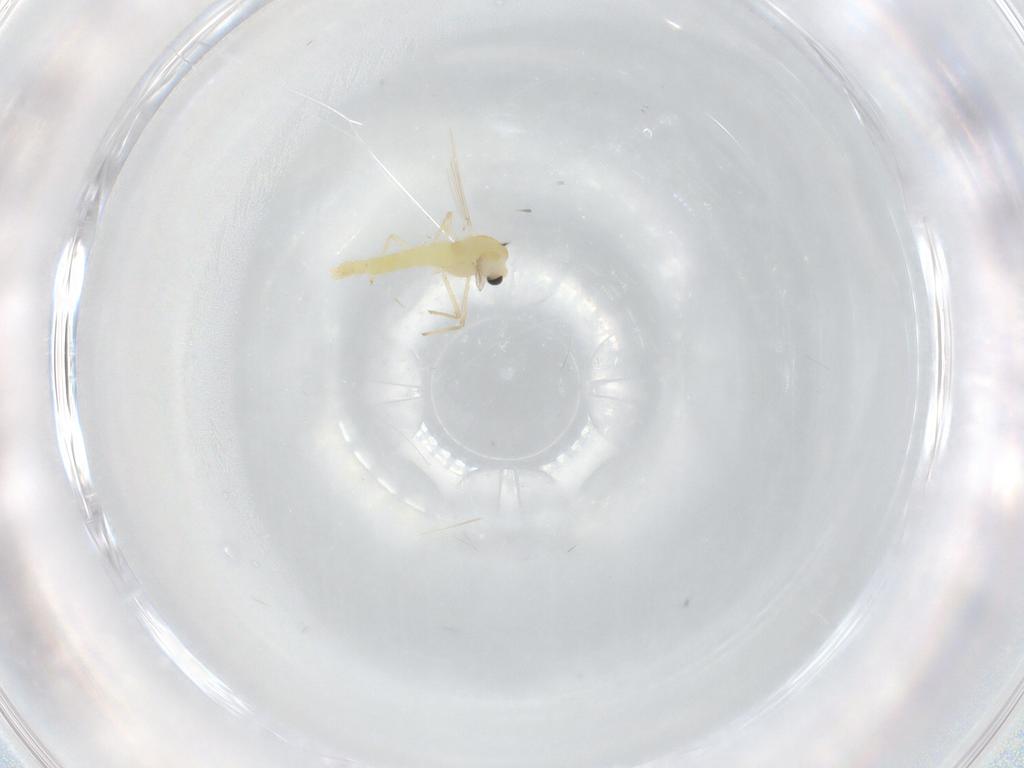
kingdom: Animalia
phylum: Arthropoda
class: Insecta
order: Diptera
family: Chironomidae
